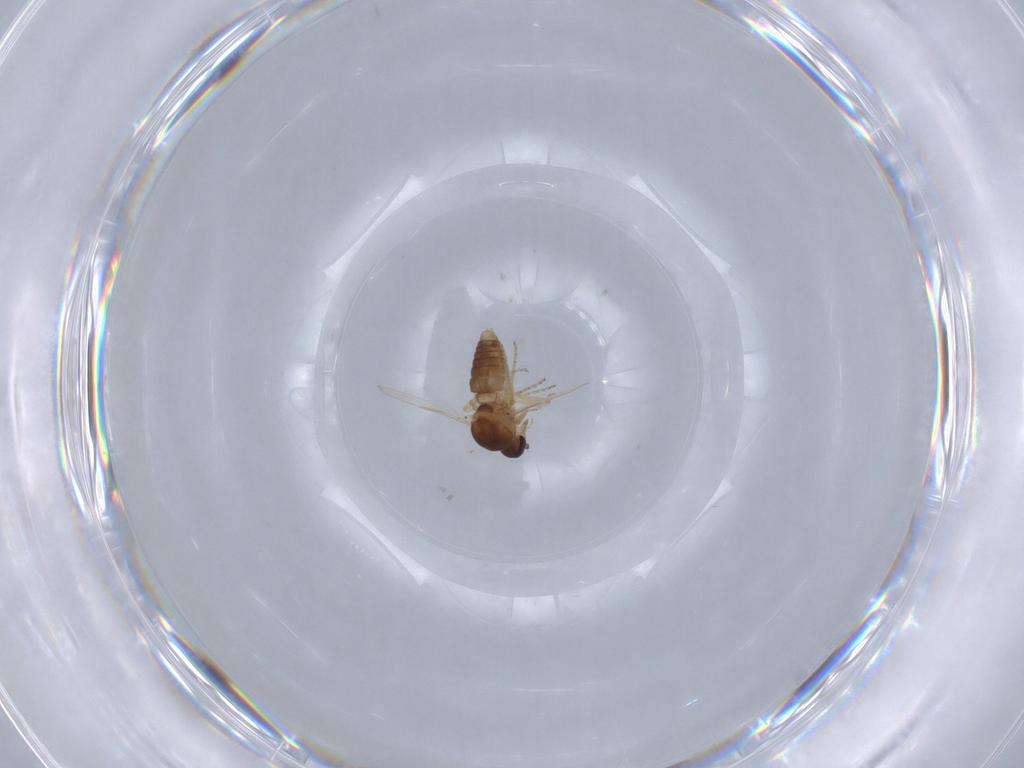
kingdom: Animalia
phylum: Arthropoda
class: Insecta
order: Diptera
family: Ceratopogonidae
